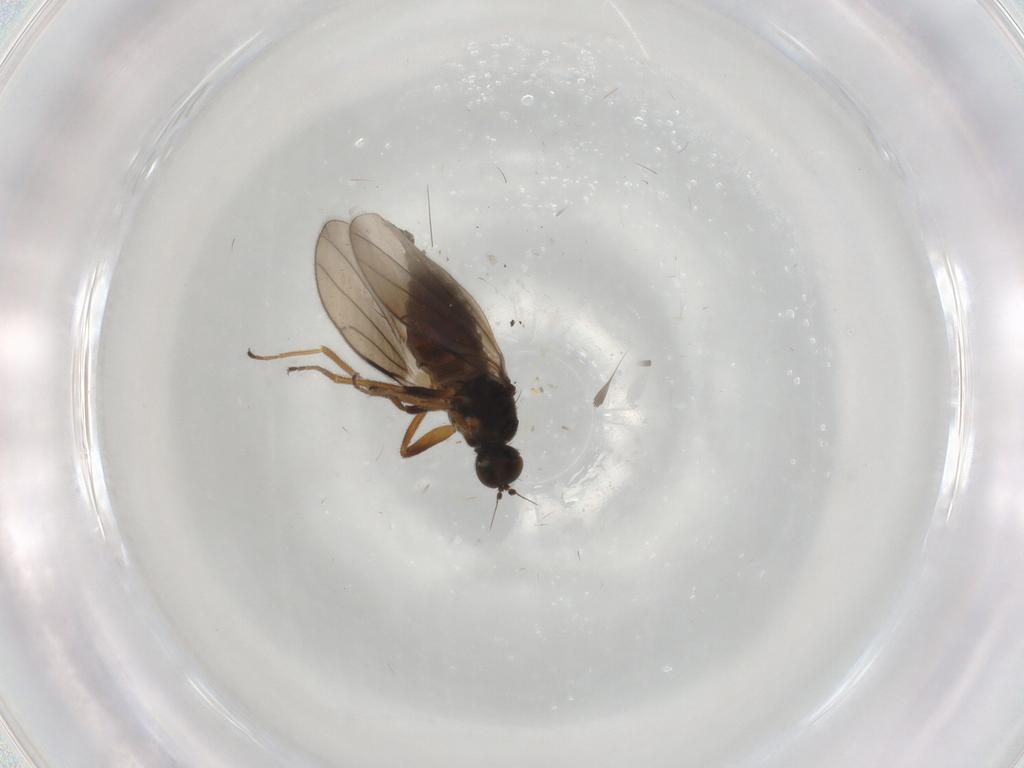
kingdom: Animalia
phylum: Arthropoda
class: Insecta
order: Diptera
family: Hybotidae
